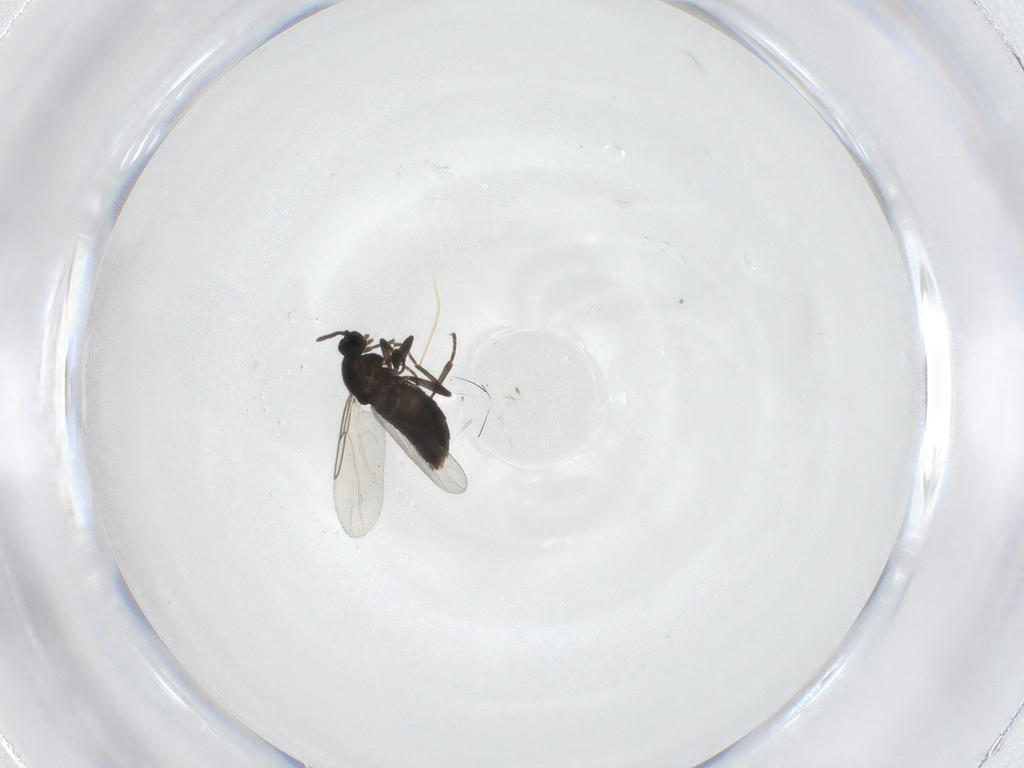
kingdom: Animalia
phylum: Arthropoda
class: Insecta
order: Diptera
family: Scatopsidae
